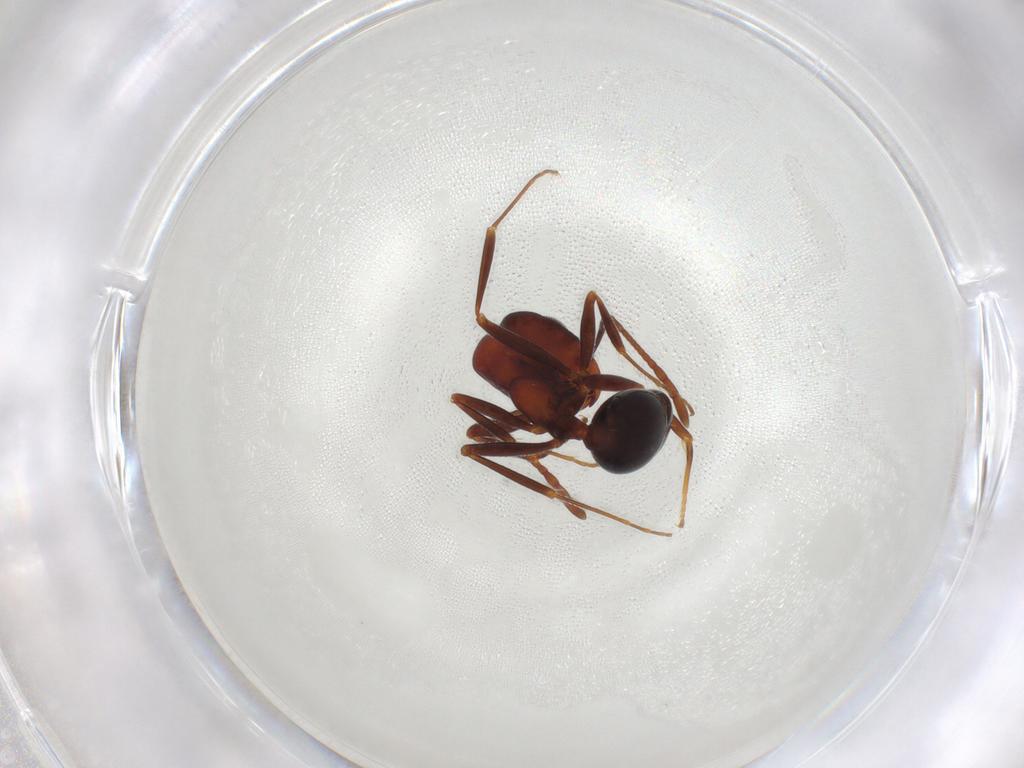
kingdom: Animalia
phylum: Arthropoda
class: Insecta
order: Hymenoptera
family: Formicidae
